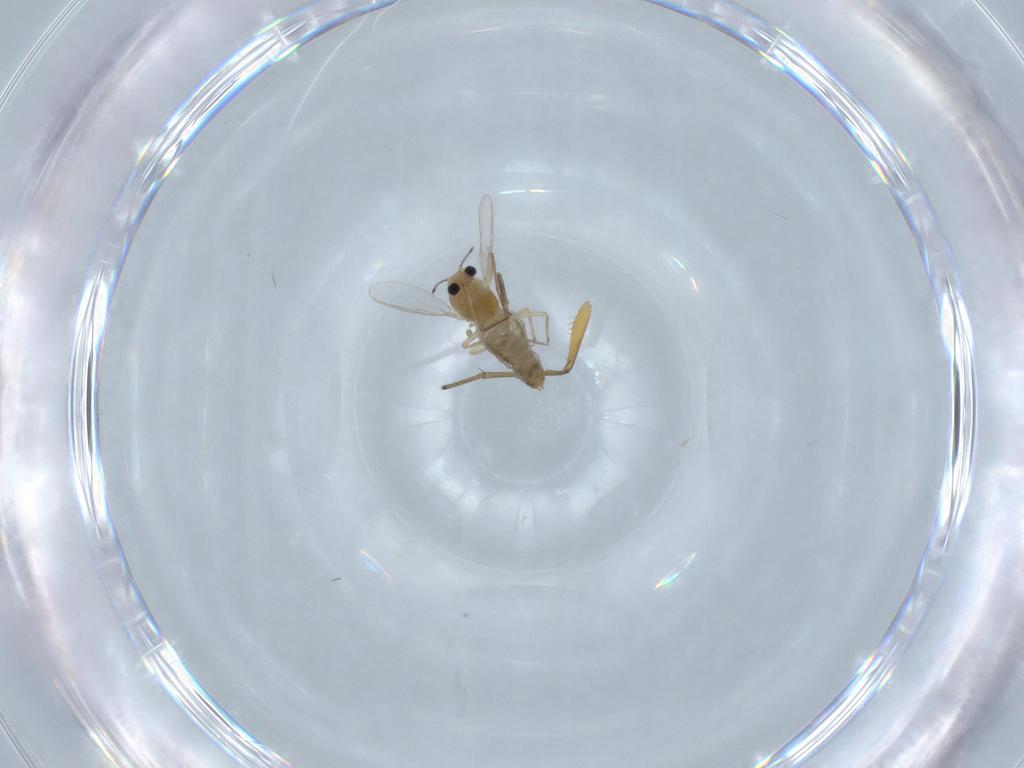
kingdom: Animalia
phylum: Arthropoda
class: Insecta
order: Diptera
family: Dolichopodidae
